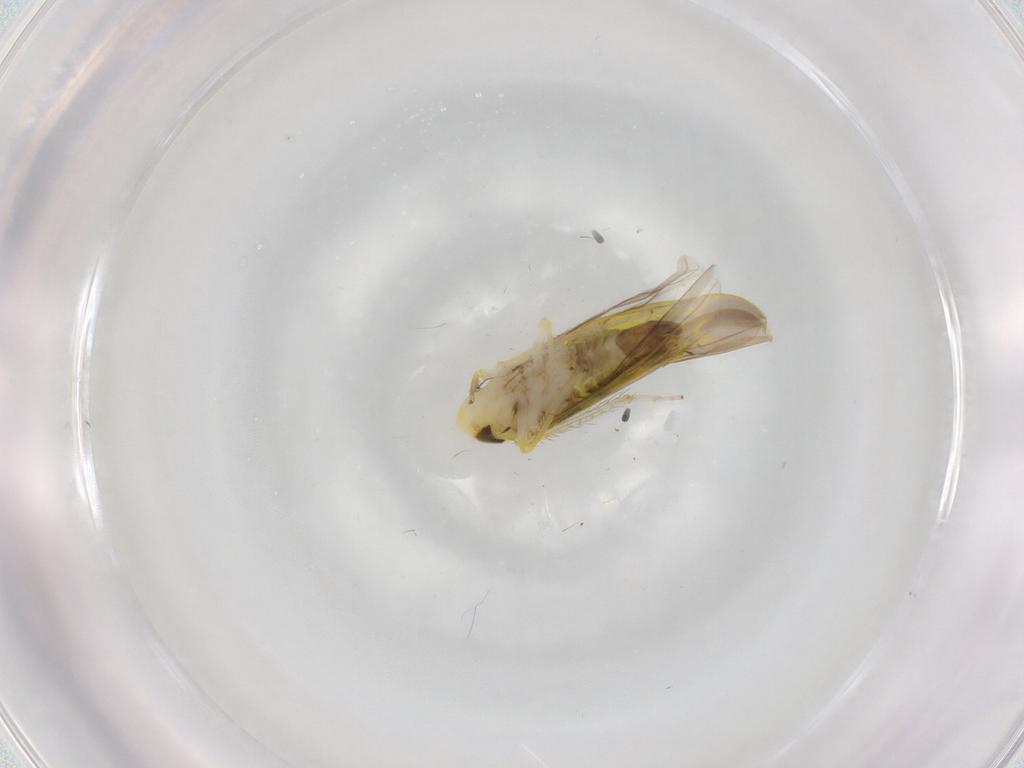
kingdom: Animalia
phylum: Arthropoda
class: Insecta
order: Hemiptera
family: Cicadellidae
